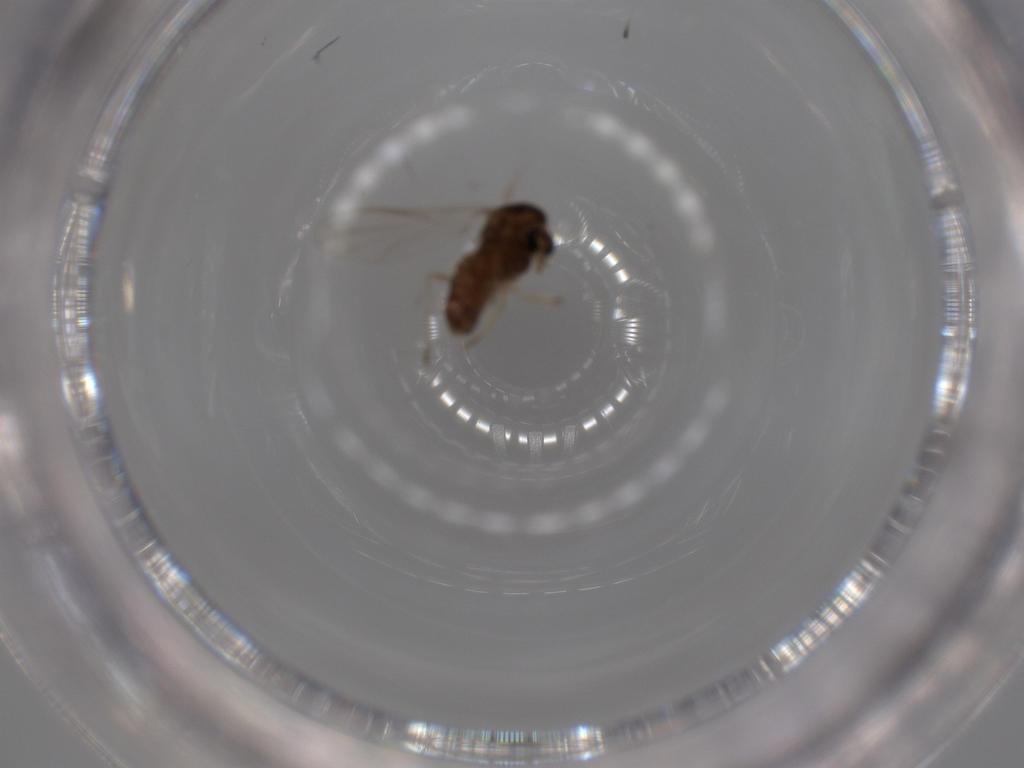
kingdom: Animalia
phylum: Arthropoda
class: Insecta
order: Diptera
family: Chironomidae
